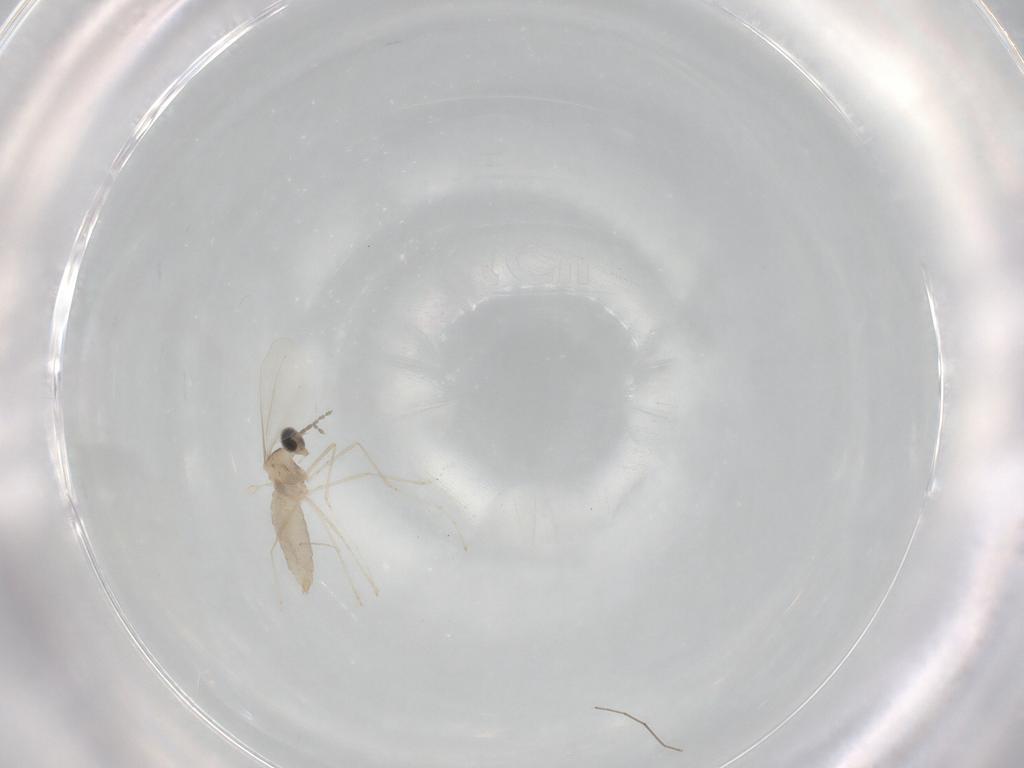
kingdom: Animalia
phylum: Arthropoda
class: Insecta
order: Diptera
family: Cecidomyiidae
